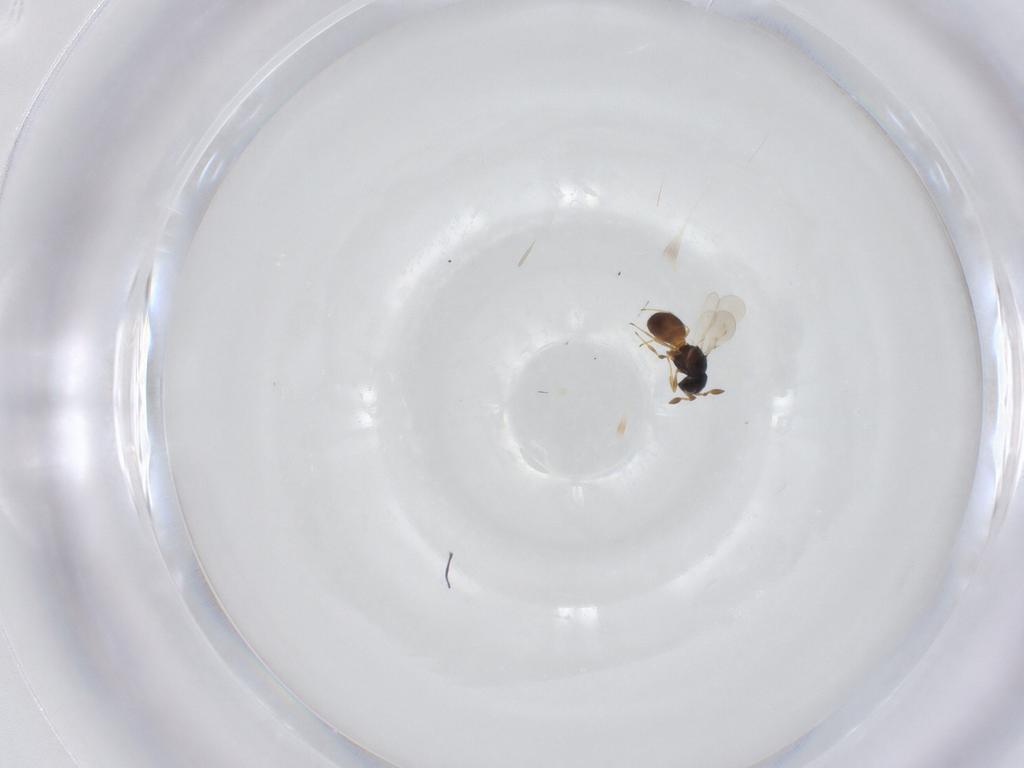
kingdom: Animalia
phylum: Arthropoda
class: Insecta
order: Hymenoptera
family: Scelionidae
